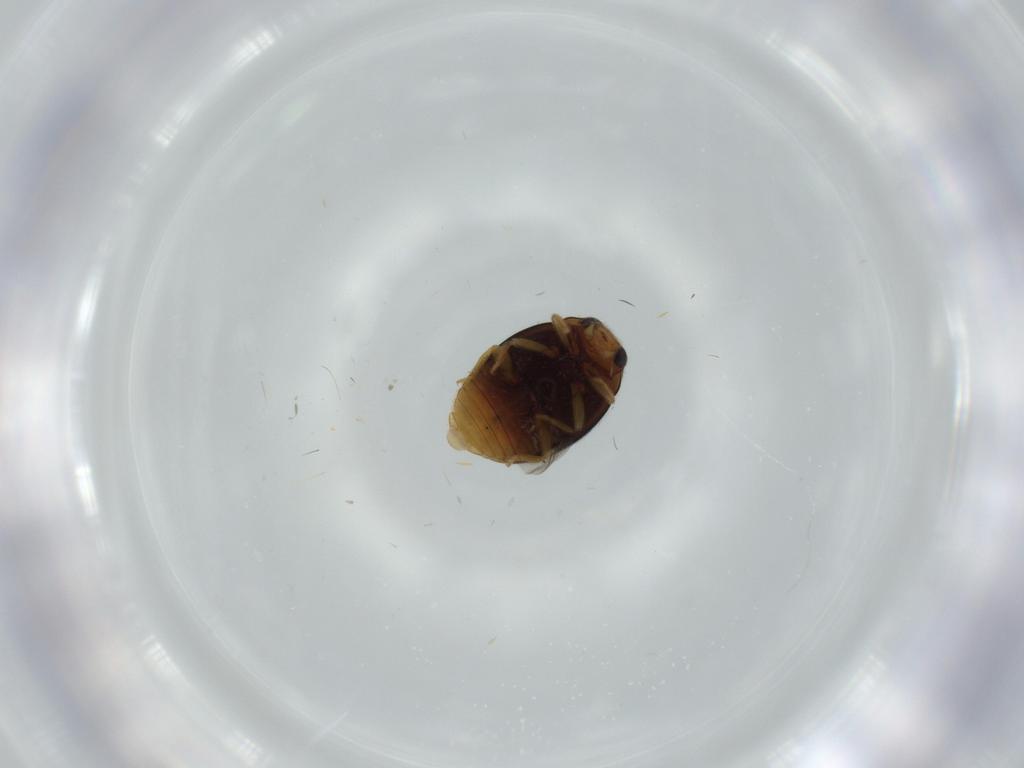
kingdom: Animalia
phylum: Arthropoda
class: Insecta
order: Coleoptera
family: Coccinellidae
